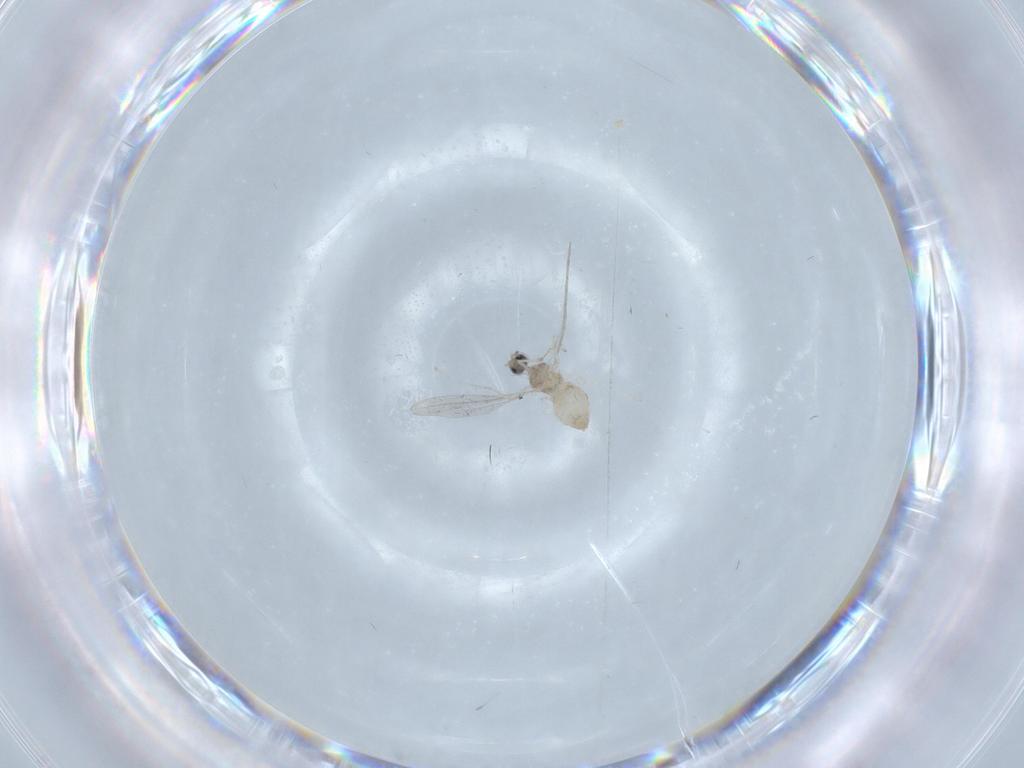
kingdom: Animalia
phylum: Arthropoda
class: Insecta
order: Diptera
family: Cecidomyiidae
